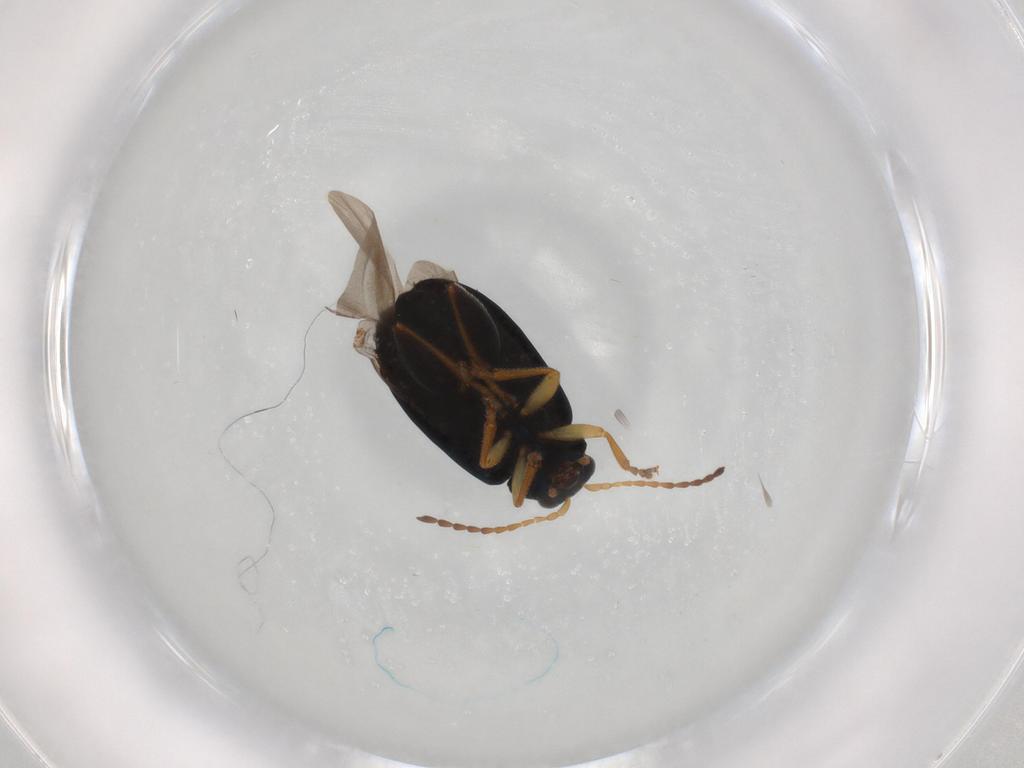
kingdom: Animalia
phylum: Arthropoda
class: Insecta
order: Coleoptera
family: Chrysomelidae
